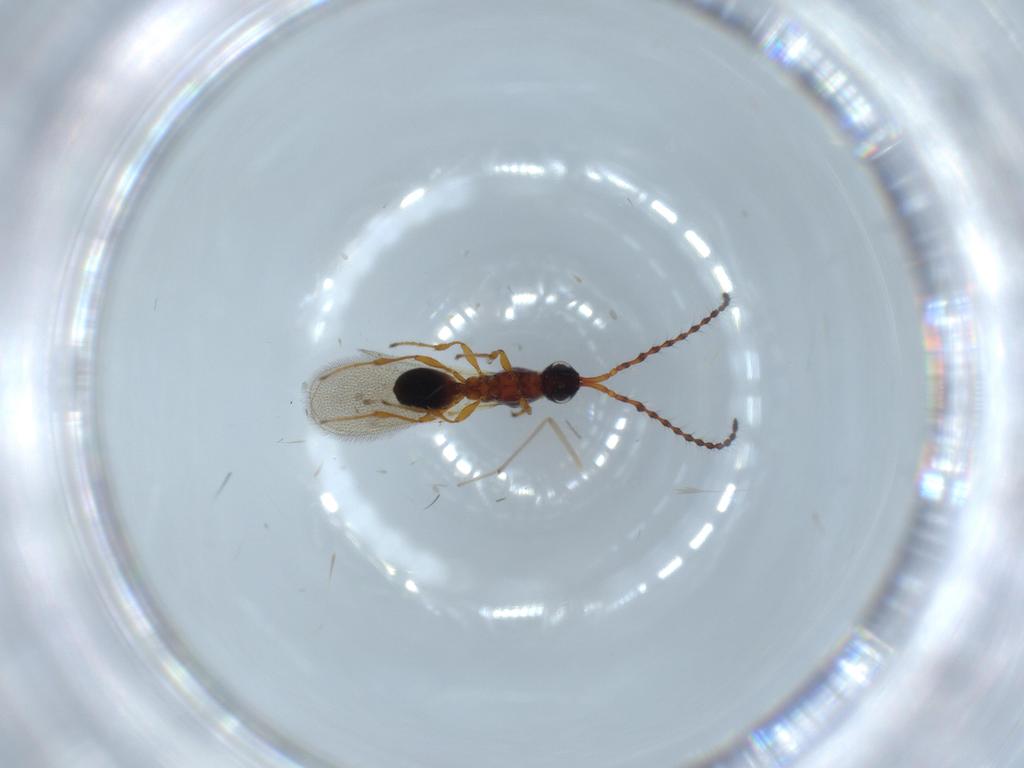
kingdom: Animalia
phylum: Arthropoda
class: Insecta
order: Hymenoptera
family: Diapriidae
